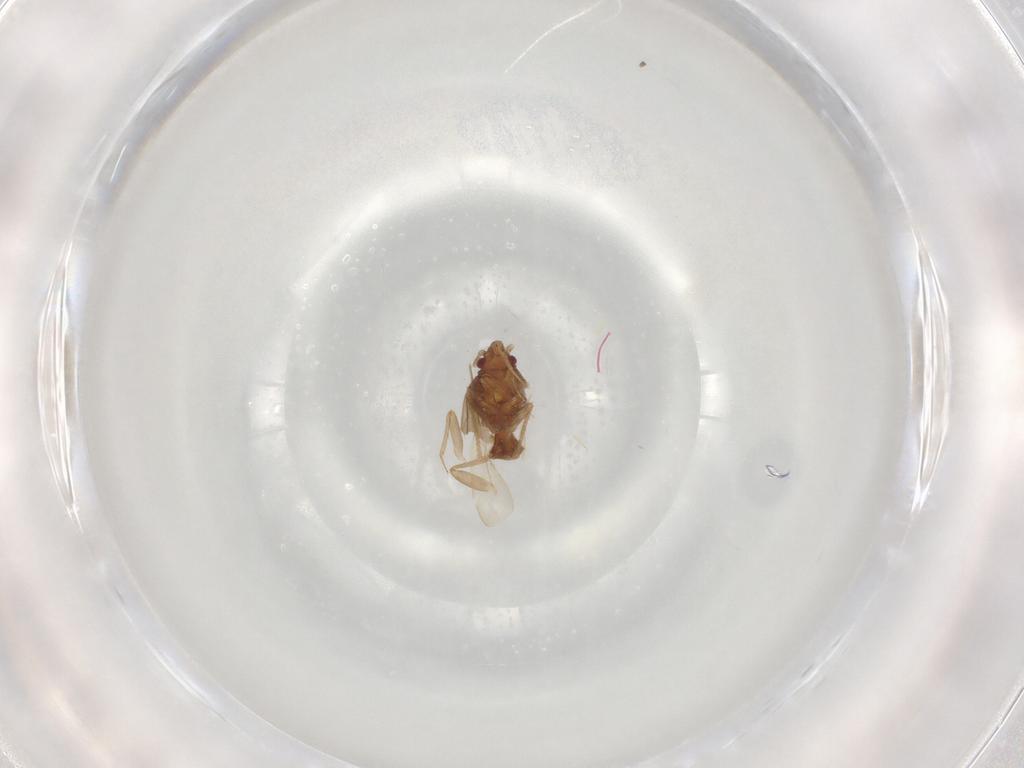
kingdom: Animalia
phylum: Arthropoda
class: Insecta
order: Hemiptera
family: Ceratocombidae
